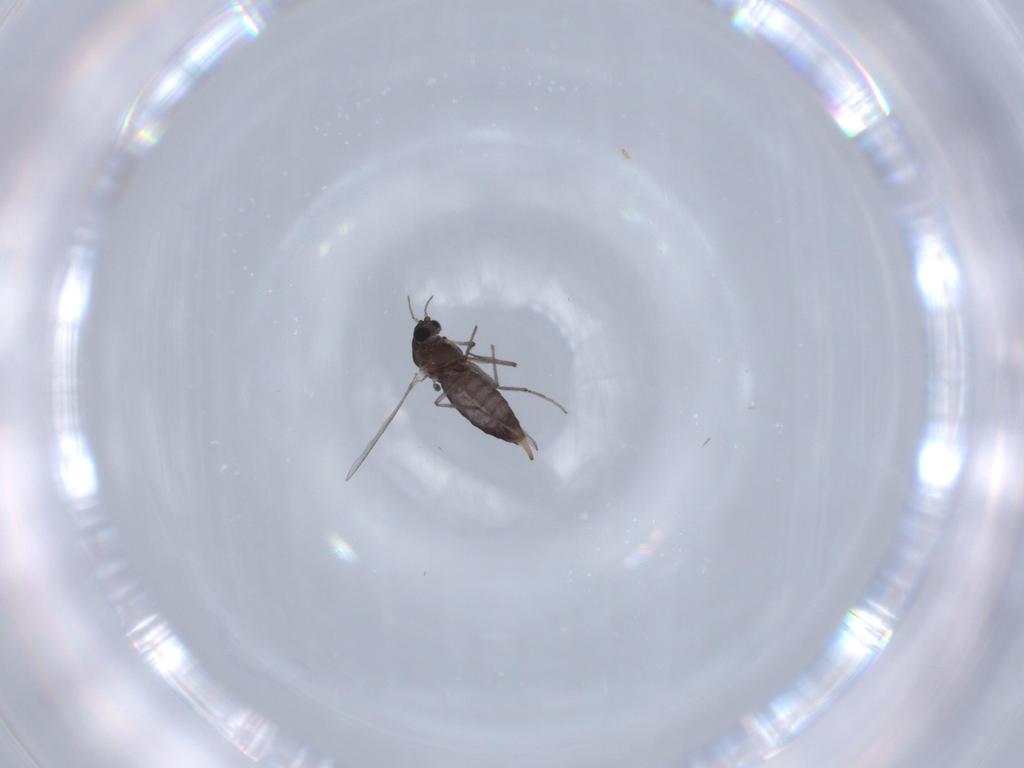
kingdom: Animalia
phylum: Arthropoda
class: Insecta
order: Diptera
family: Chironomidae
